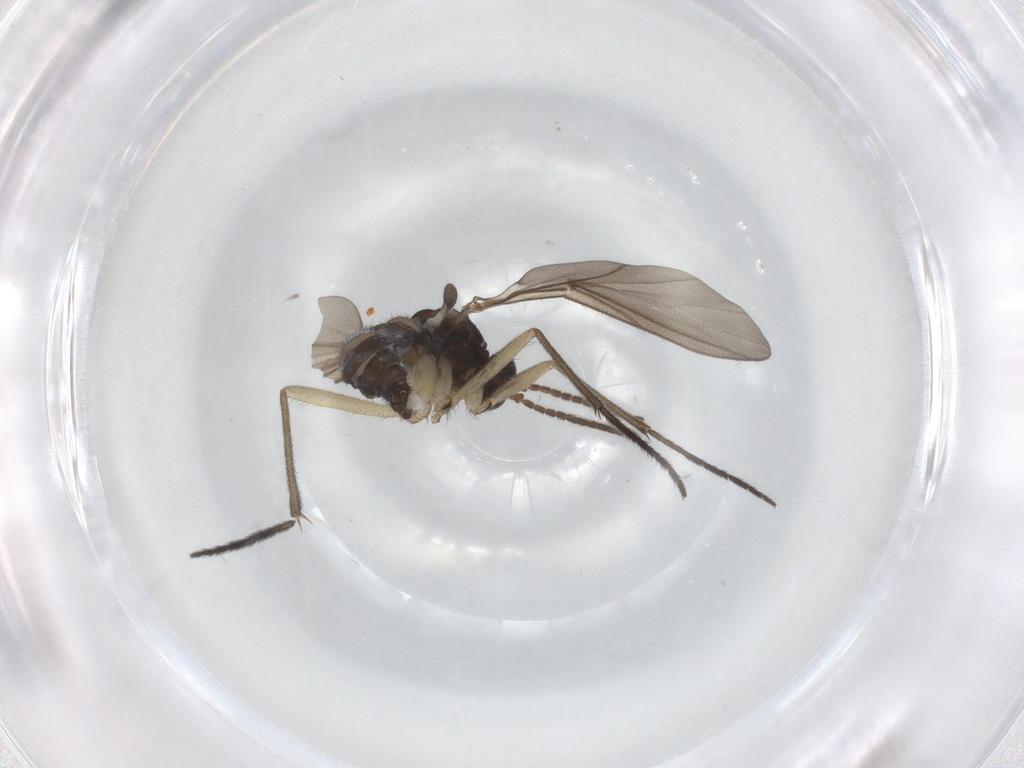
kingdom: Animalia
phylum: Arthropoda
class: Insecta
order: Diptera
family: Sciaridae
